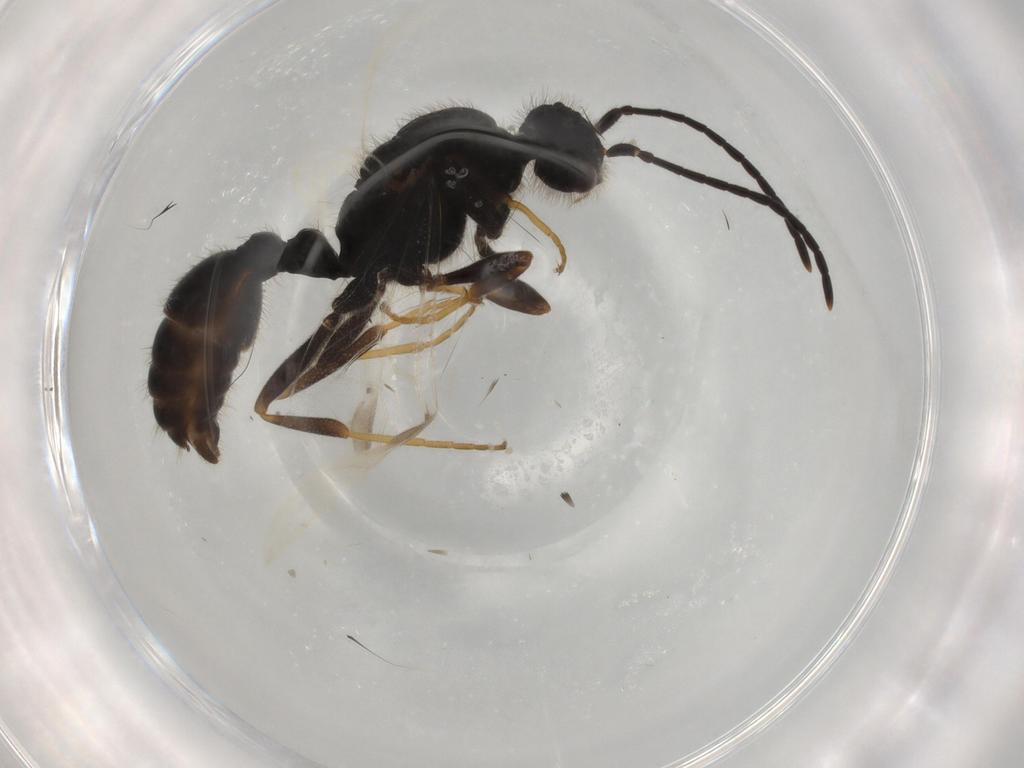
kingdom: Animalia
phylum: Arthropoda
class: Insecta
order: Hymenoptera
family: Formicidae
